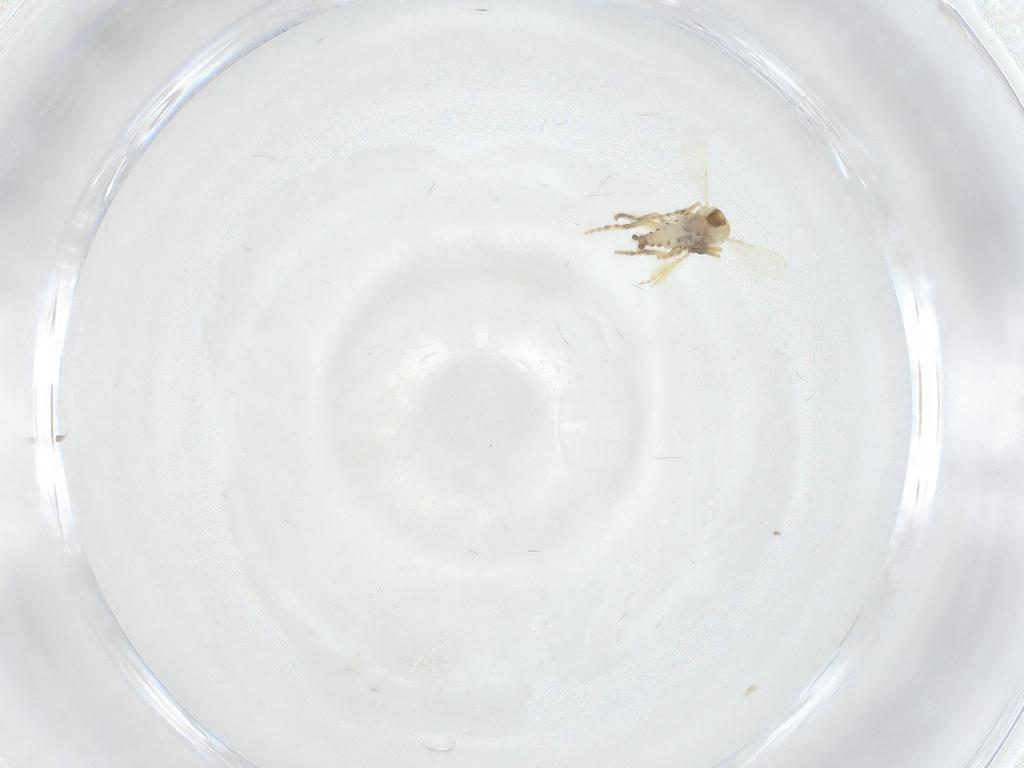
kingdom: Animalia
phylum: Arthropoda
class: Insecta
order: Diptera
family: Ceratopogonidae
